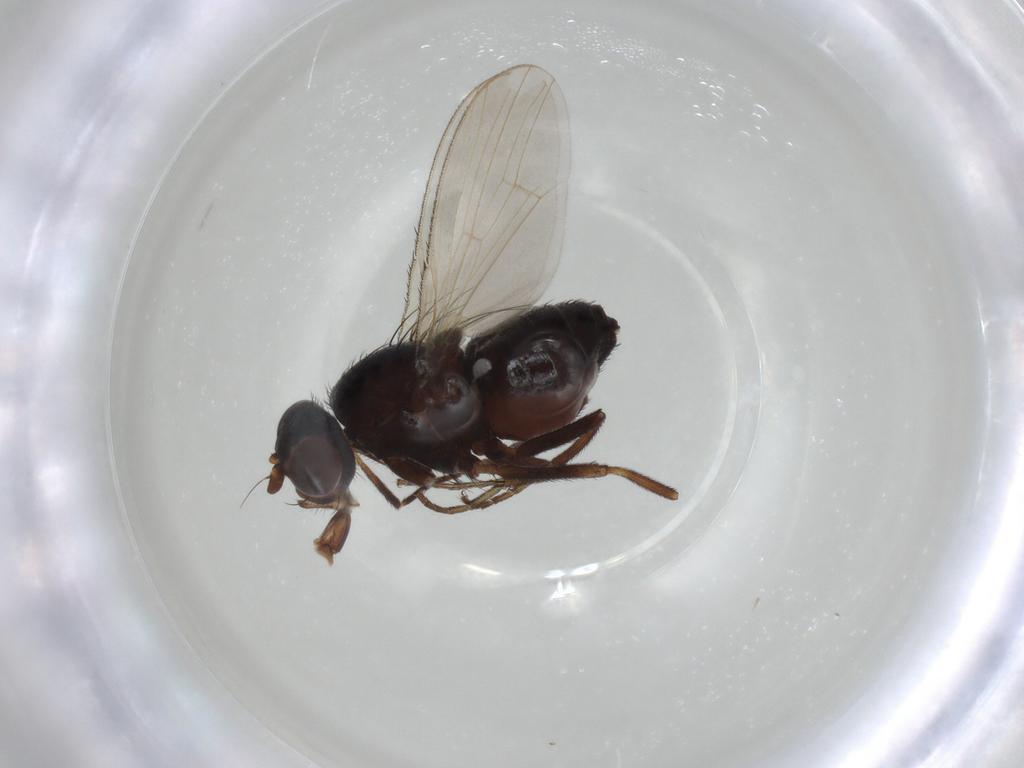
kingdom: Animalia
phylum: Arthropoda
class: Insecta
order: Diptera
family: Heleomyzidae
